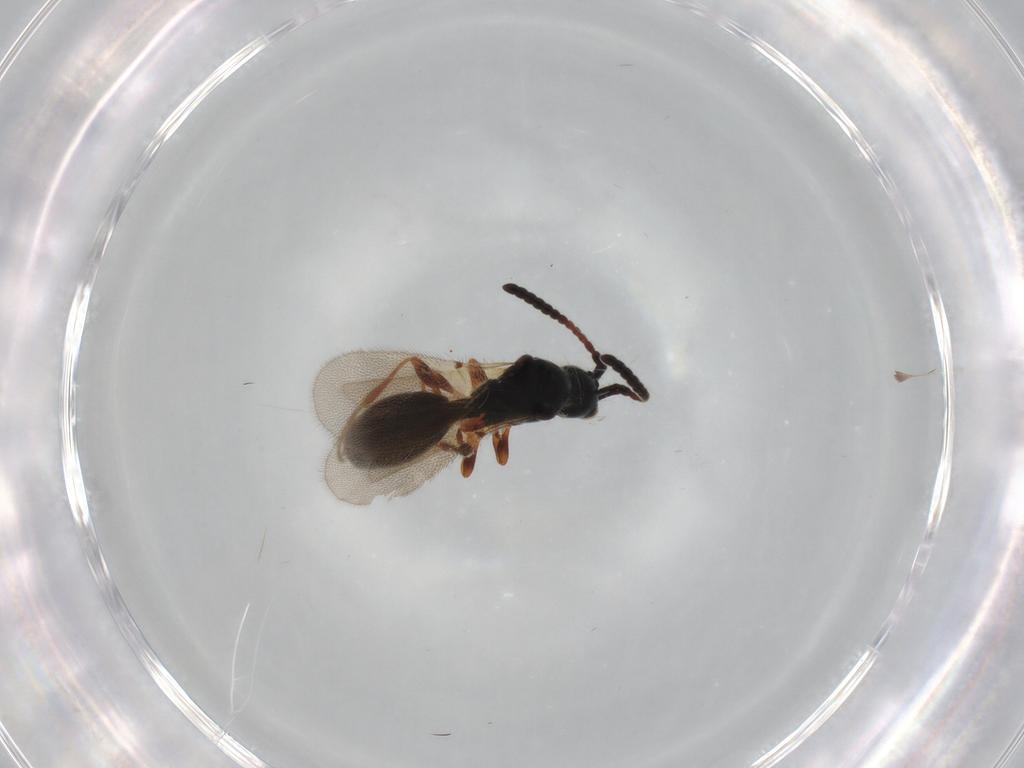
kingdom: Animalia
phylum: Arthropoda
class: Insecta
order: Hymenoptera
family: Diapriidae
